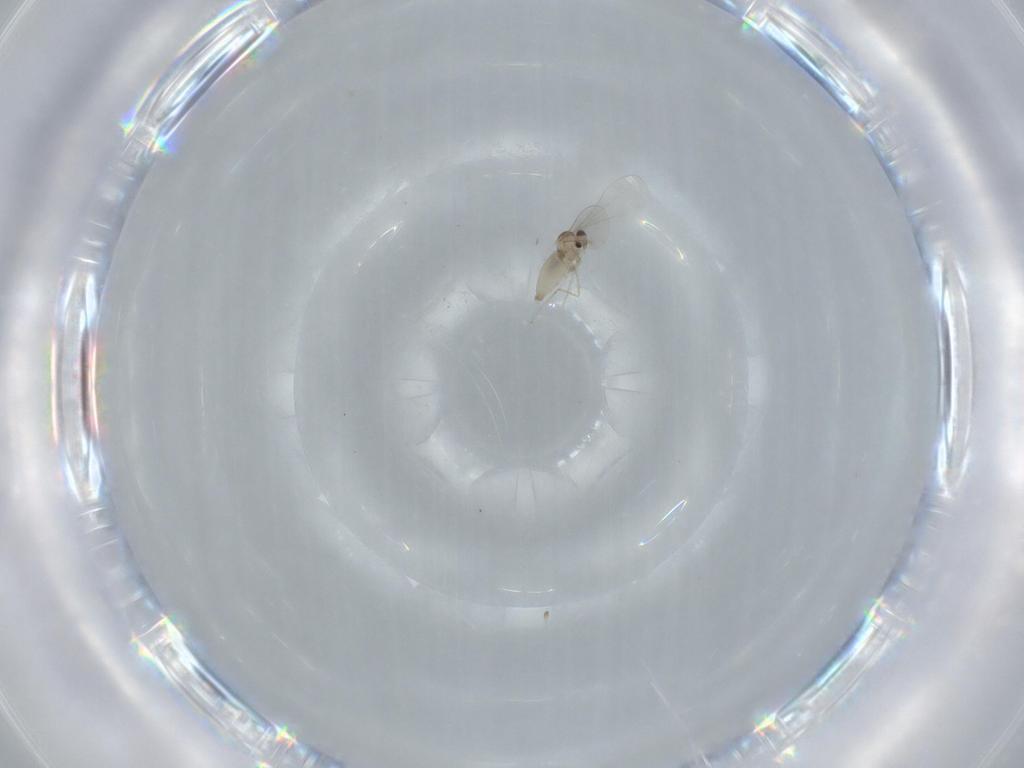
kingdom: Animalia
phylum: Arthropoda
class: Insecta
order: Diptera
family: Cecidomyiidae
